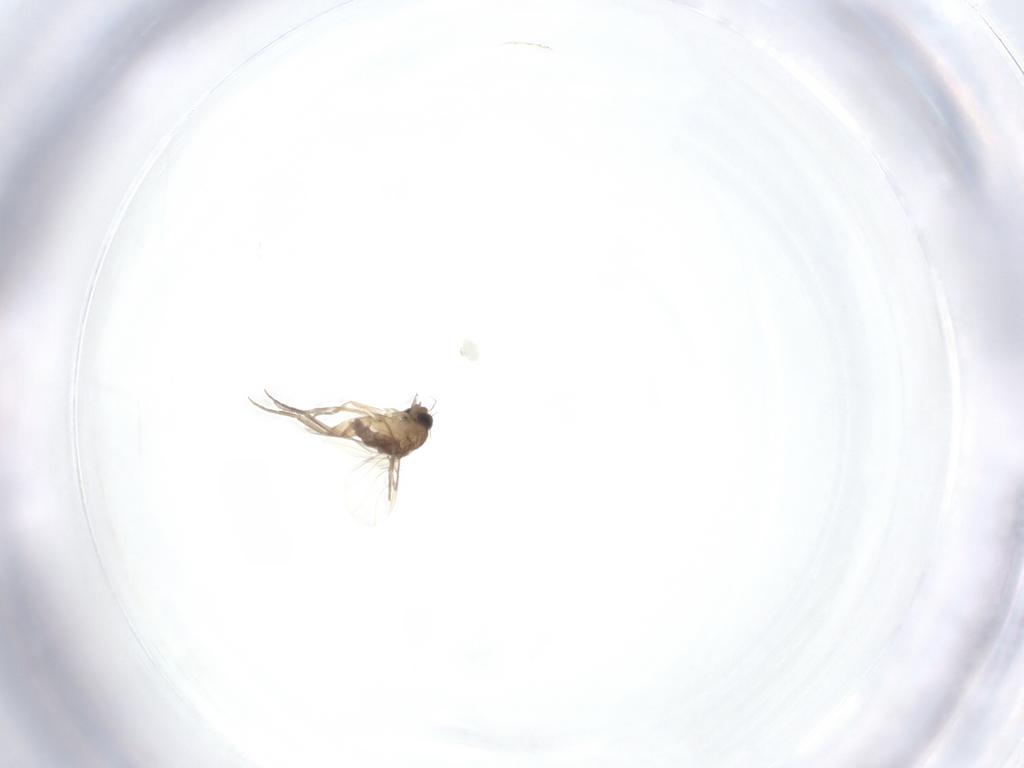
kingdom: Animalia
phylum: Arthropoda
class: Insecta
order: Diptera
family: Phoridae
